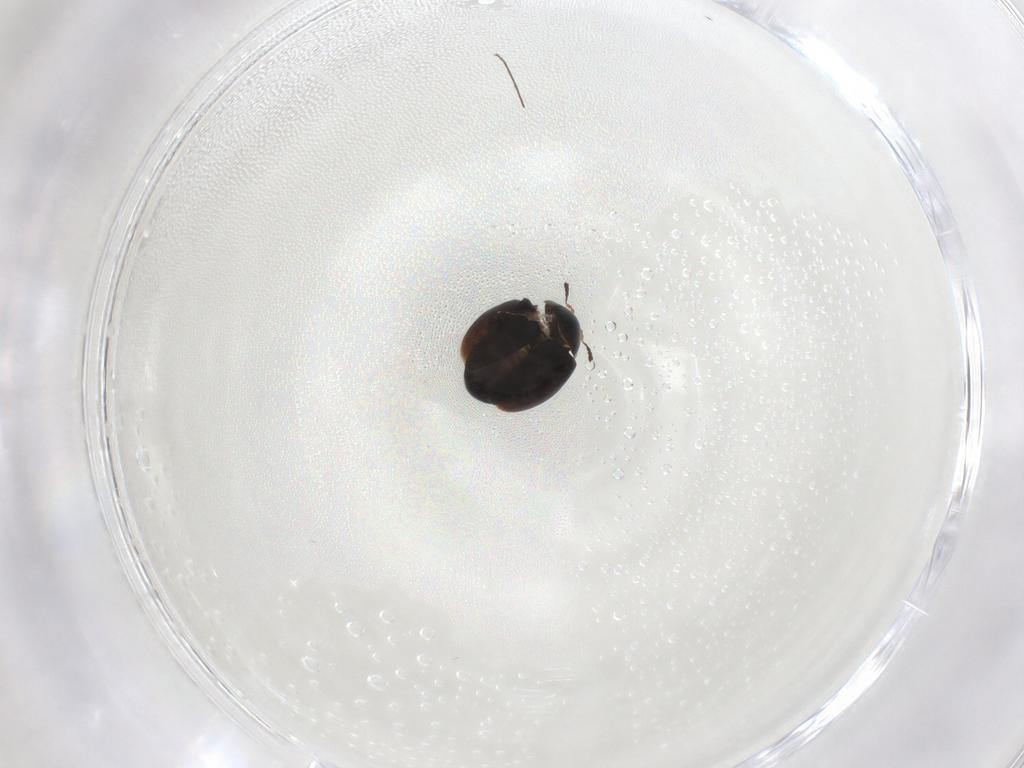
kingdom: Animalia
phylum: Arthropoda
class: Insecta
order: Coleoptera
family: Corylophidae
